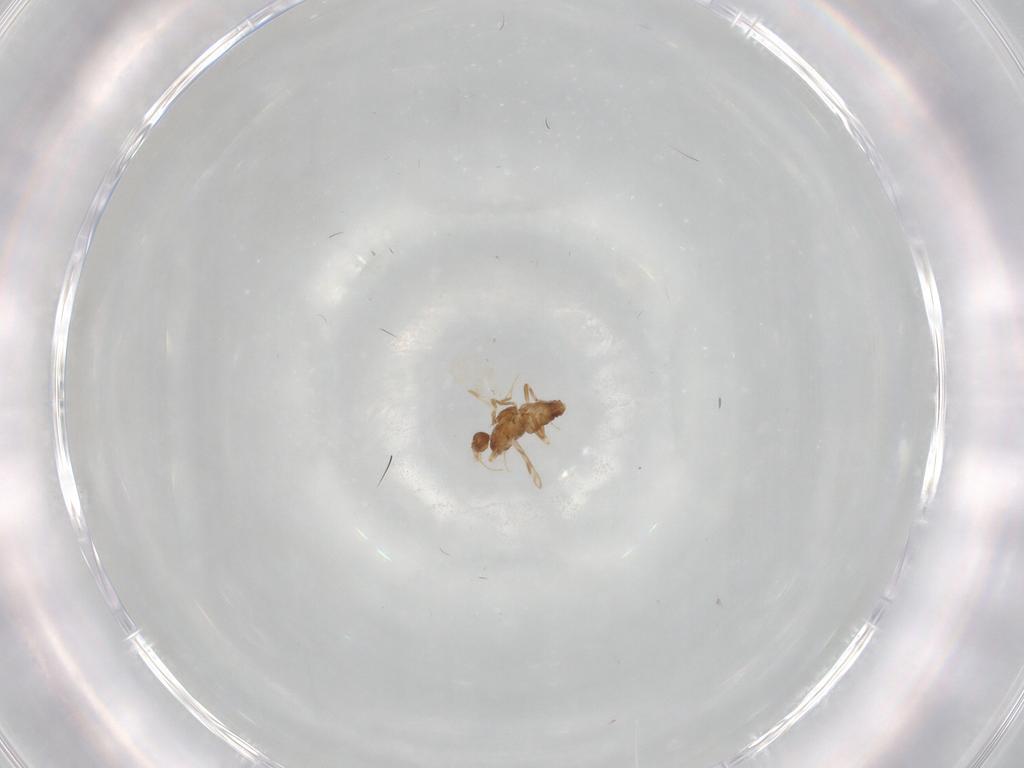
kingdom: Animalia
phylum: Arthropoda
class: Insecta
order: Diptera
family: Ceratopogonidae
